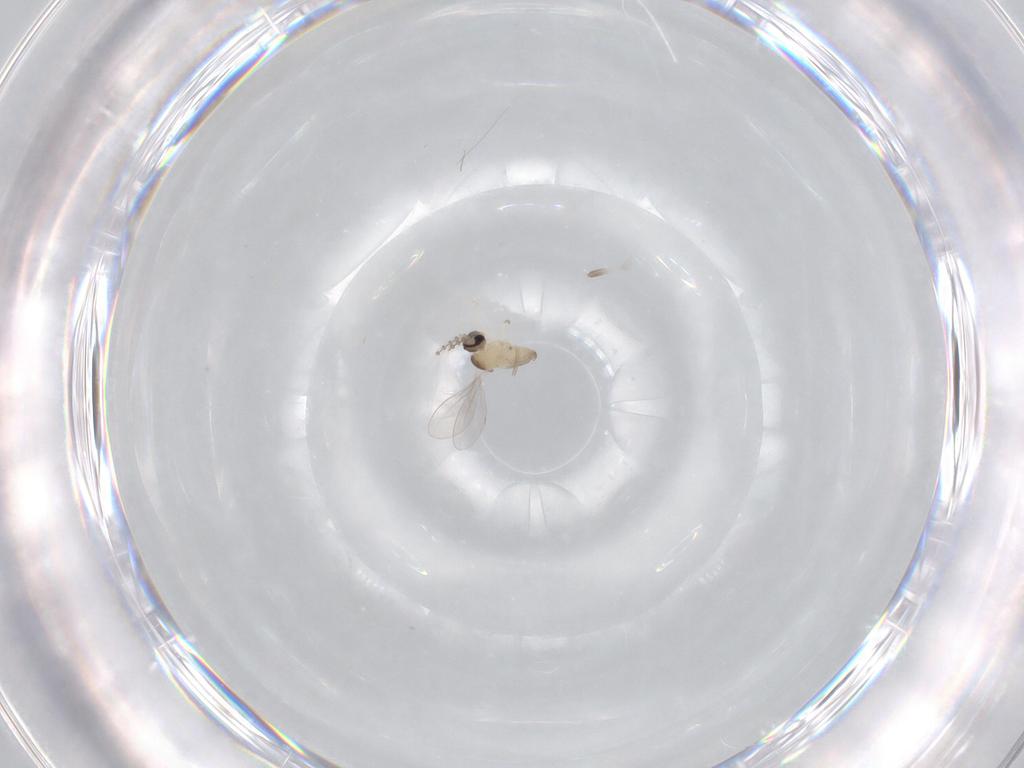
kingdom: Animalia
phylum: Arthropoda
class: Insecta
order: Diptera
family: Cecidomyiidae
